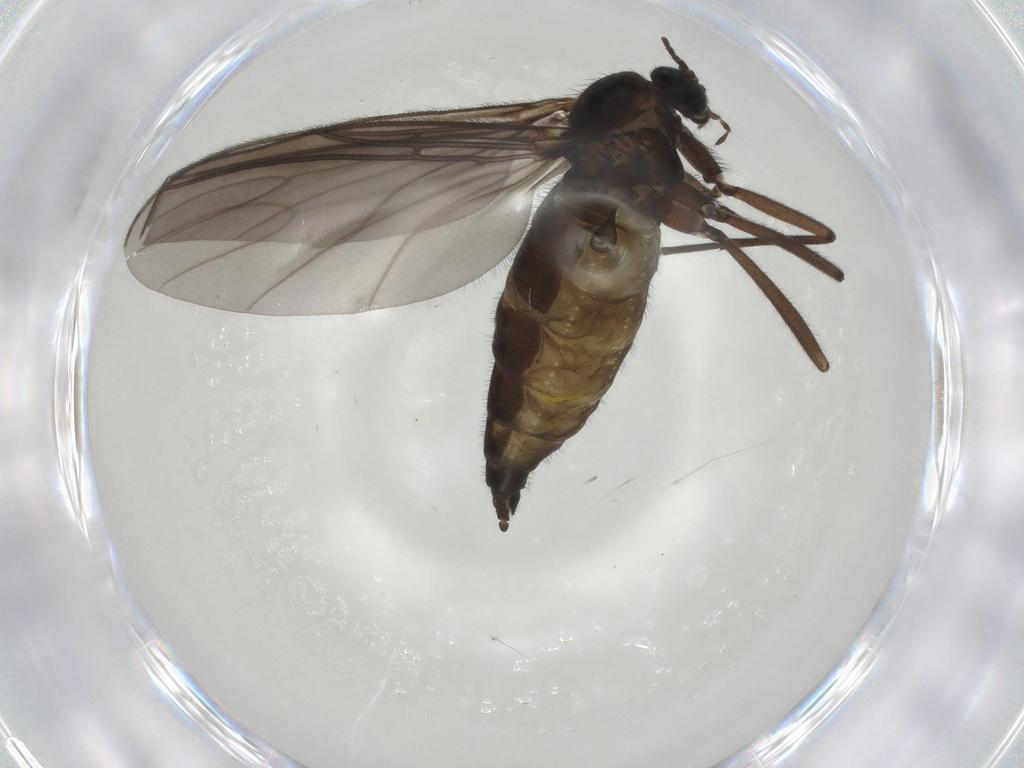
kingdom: Animalia
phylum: Arthropoda
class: Insecta
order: Diptera
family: Sciaridae
